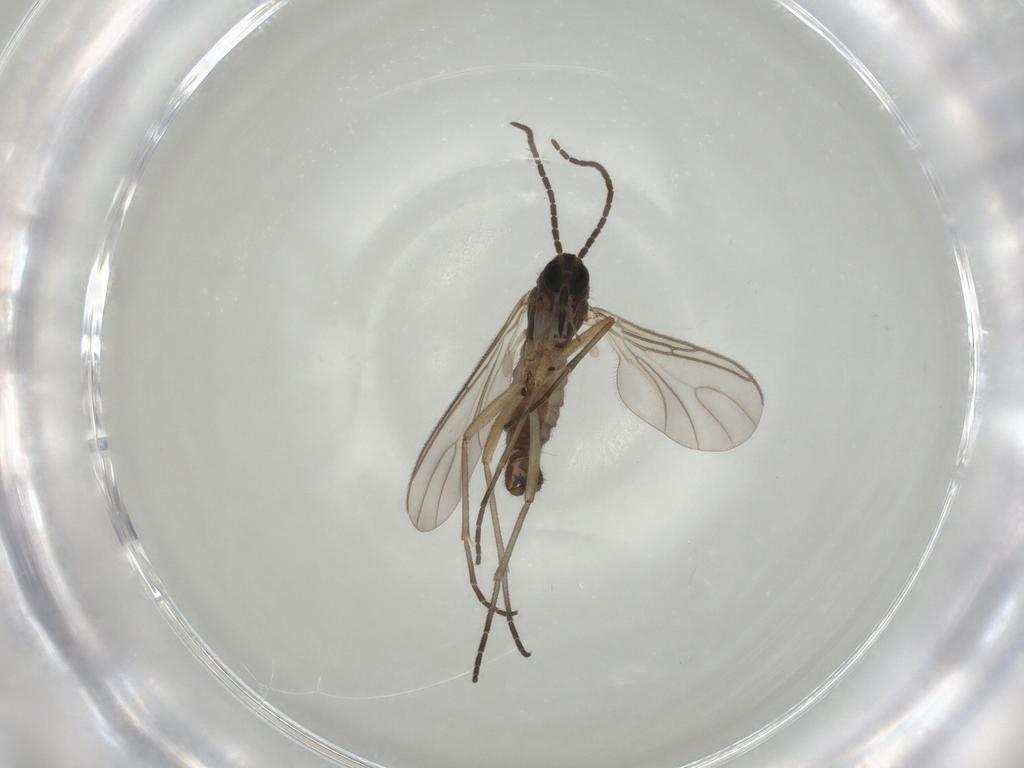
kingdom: Animalia
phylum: Arthropoda
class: Insecta
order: Diptera
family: Sciaridae
